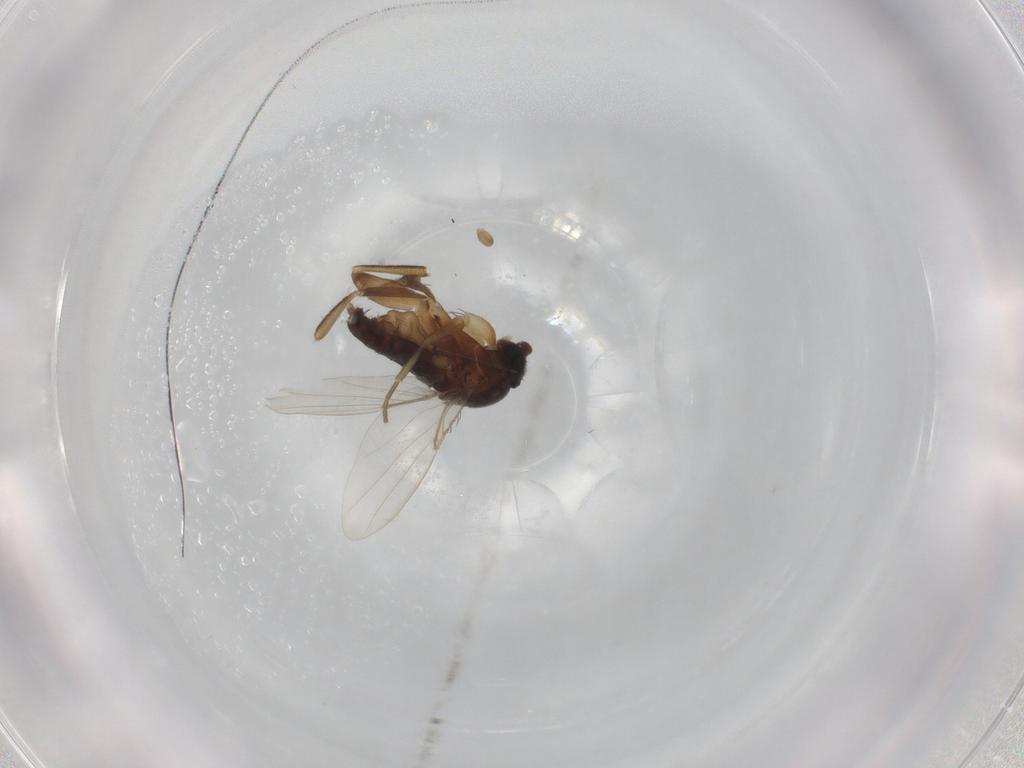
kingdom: Animalia
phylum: Arthropoda
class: Insecta
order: Diptera
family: Phoridae
